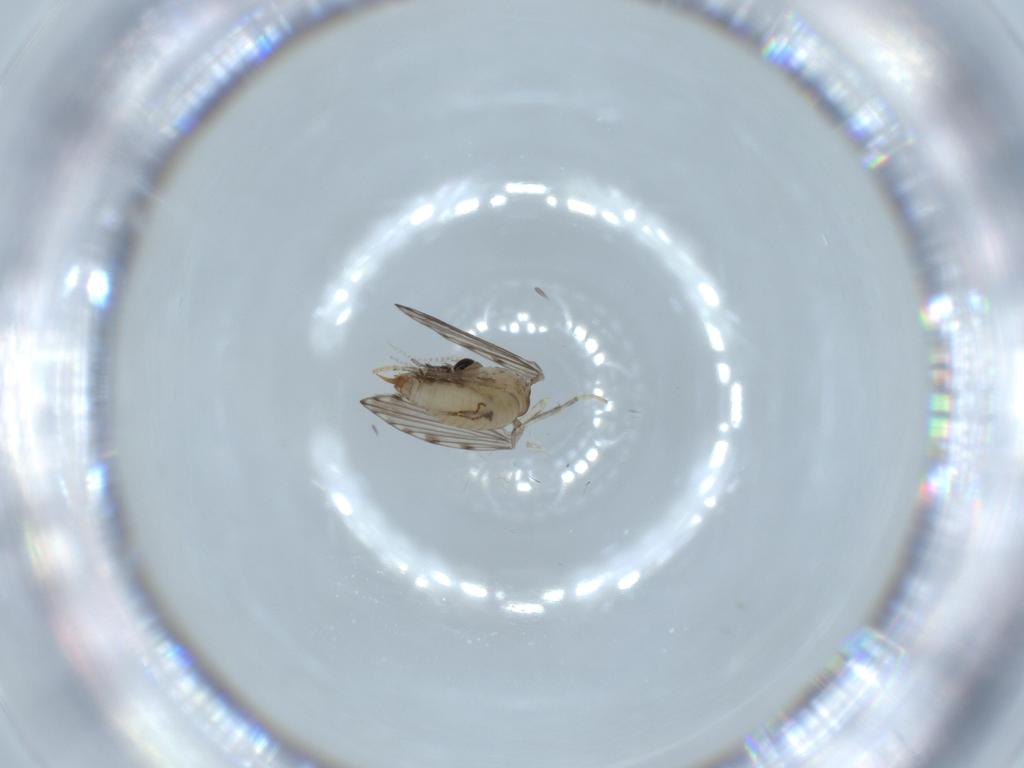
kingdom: Animalia
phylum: Arthropoda
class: Insecta
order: Diptera
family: Psychodidae
